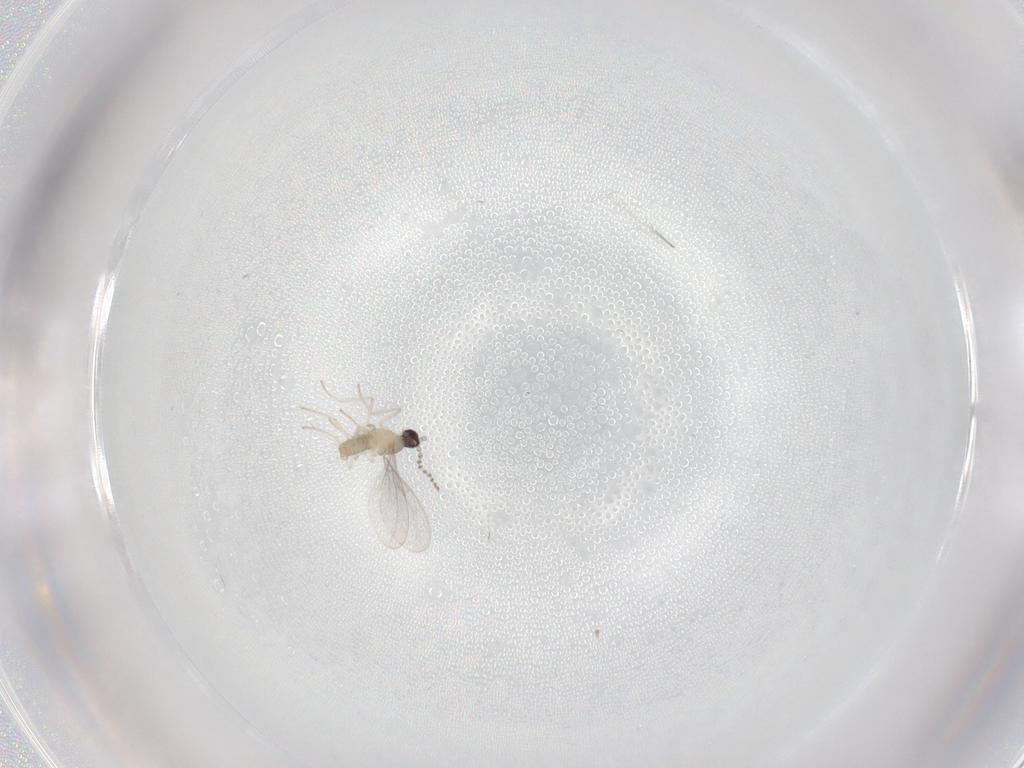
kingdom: Animalia
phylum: Arthropoda
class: Insecta
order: Diptera
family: Cecidomyiidae
